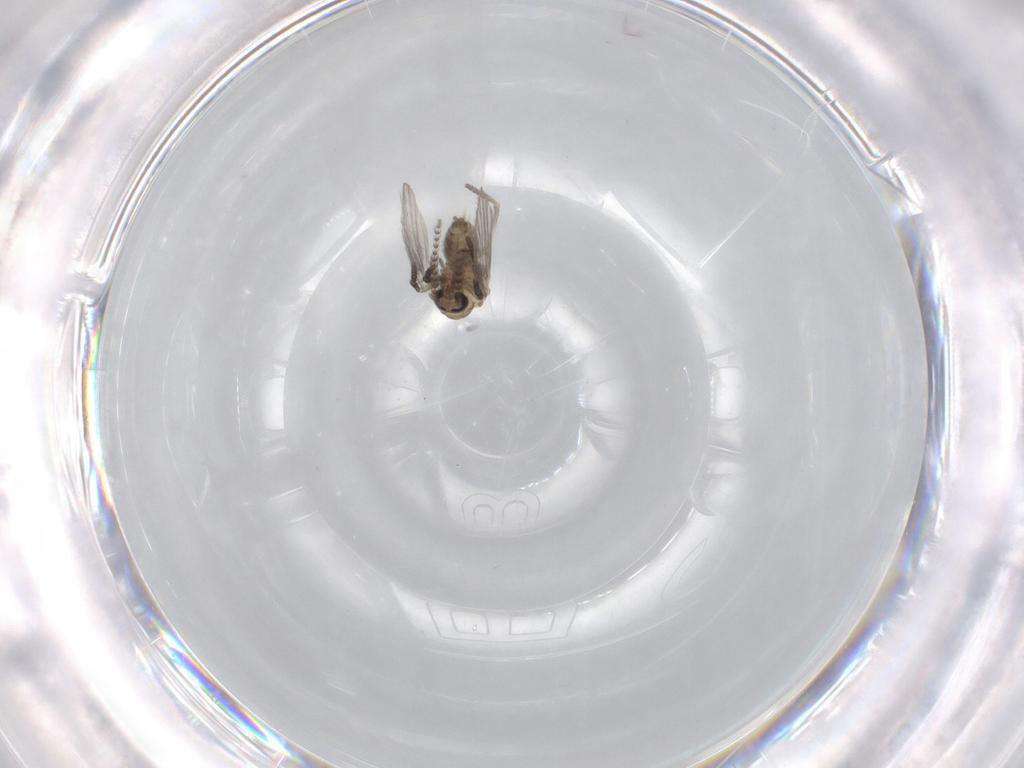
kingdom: Animalia
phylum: Arthropoda
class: Insecta
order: Diptera
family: Psychodidae
